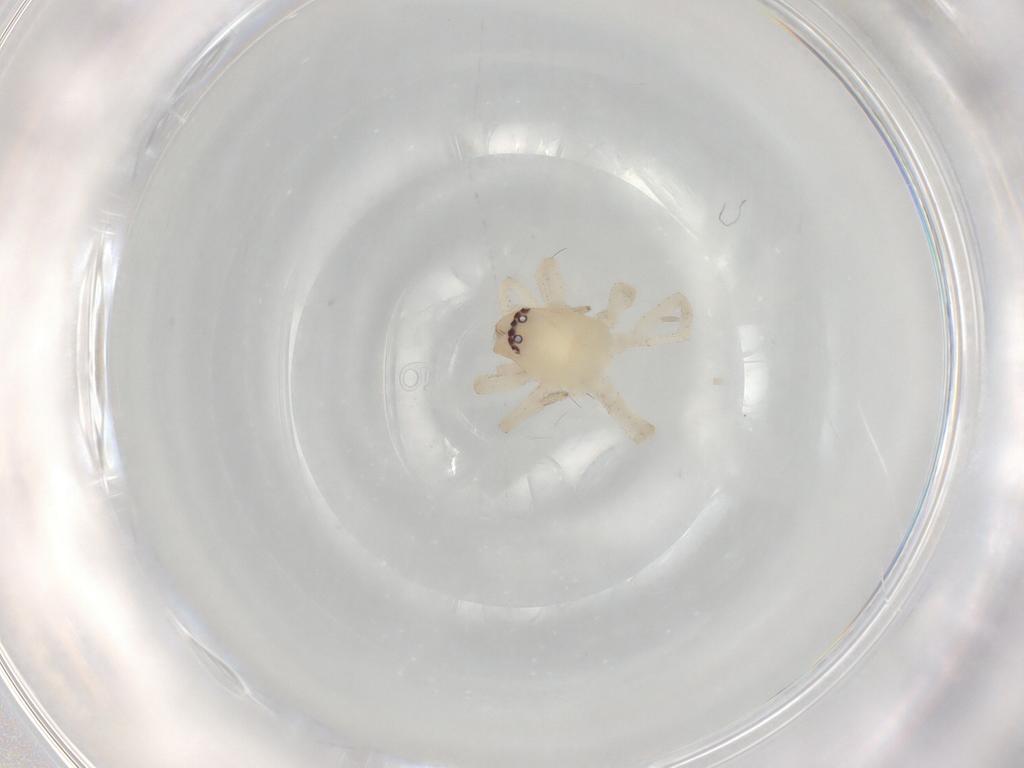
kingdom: Animalia
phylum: Arthropoda
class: Arachnida
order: Araneae
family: Clubionidae
